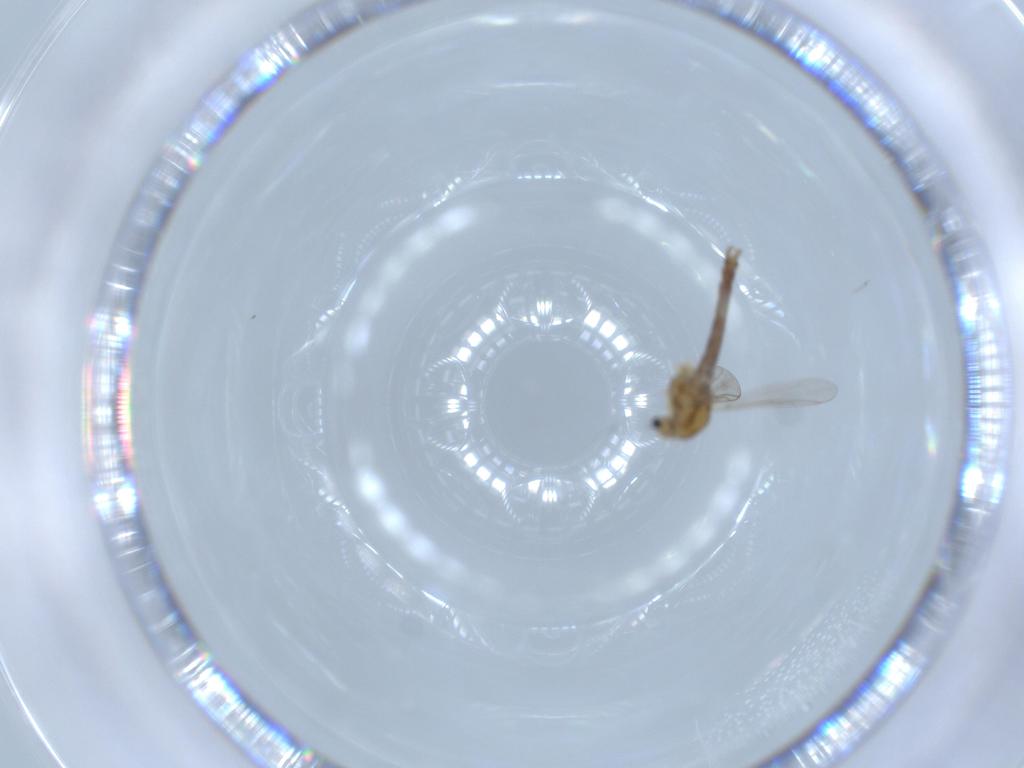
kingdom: Animalia
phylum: Arthropoda
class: Insecta
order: Diptera
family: Chironomidae
